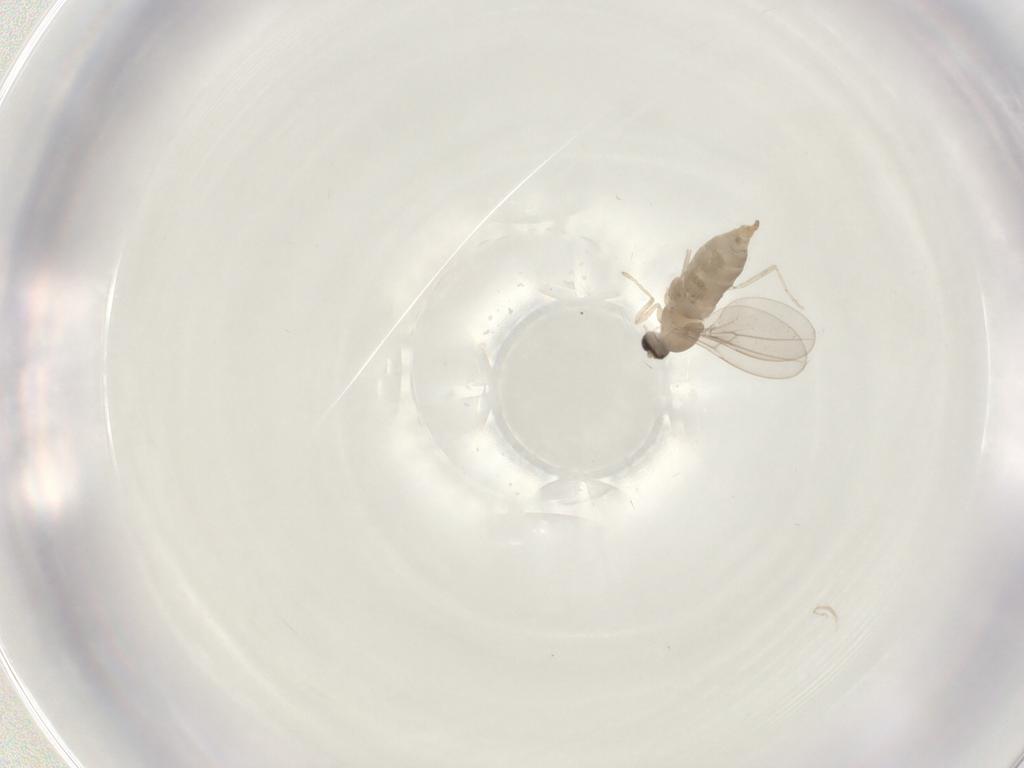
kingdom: Animalia
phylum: Arthropoda
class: Insecta
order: Diptera
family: Cecidomyiidae
